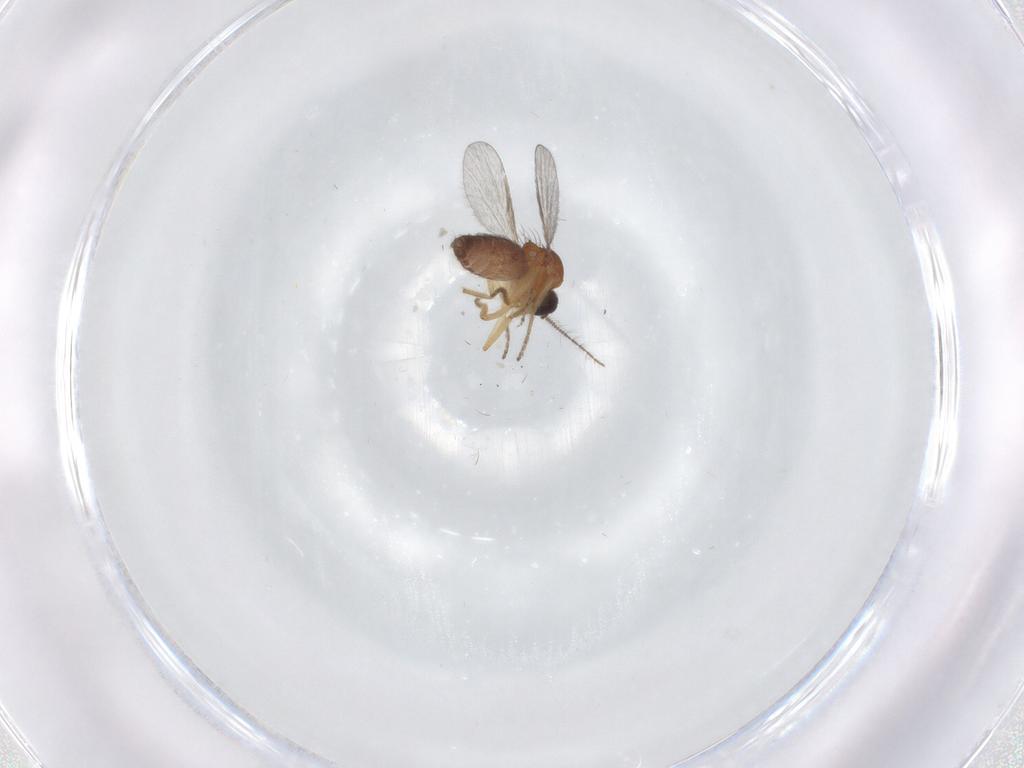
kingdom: Animalia
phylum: Arthropoda
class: Insecta
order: Diptera
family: Ceratopogonidae
